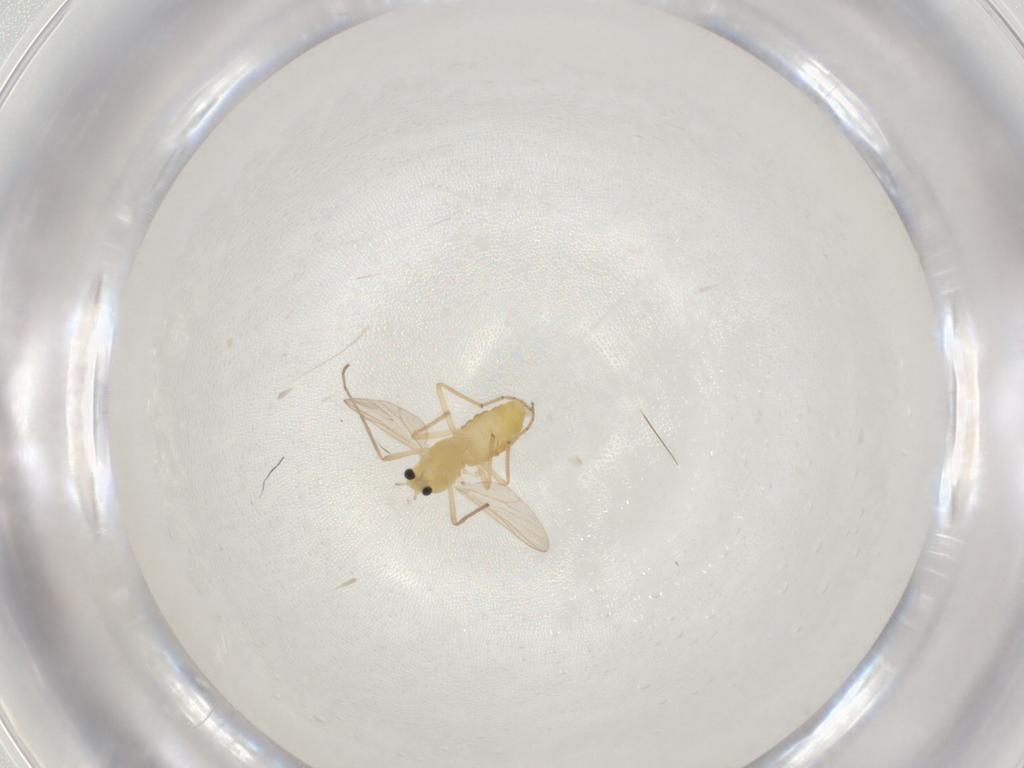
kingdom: Animalia
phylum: Arthropoda
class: Insecta
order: Diptera
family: Chironomidae
